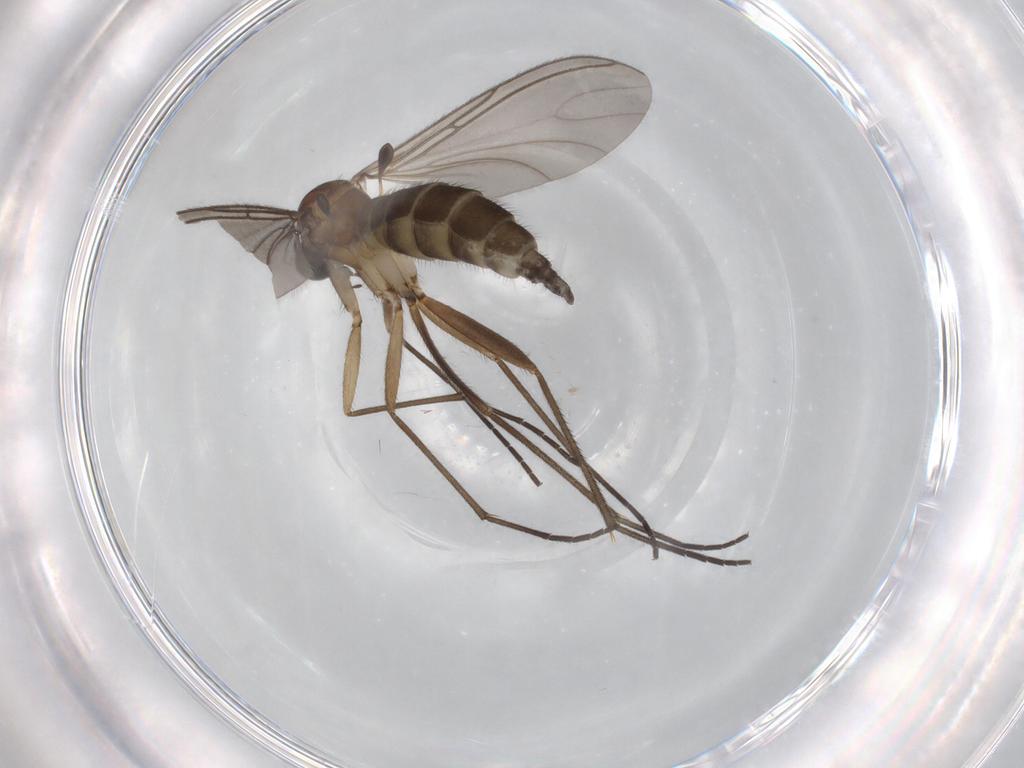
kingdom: Animalia
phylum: Arthropoda
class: Insecta
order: Diptera
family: Sciaridae
